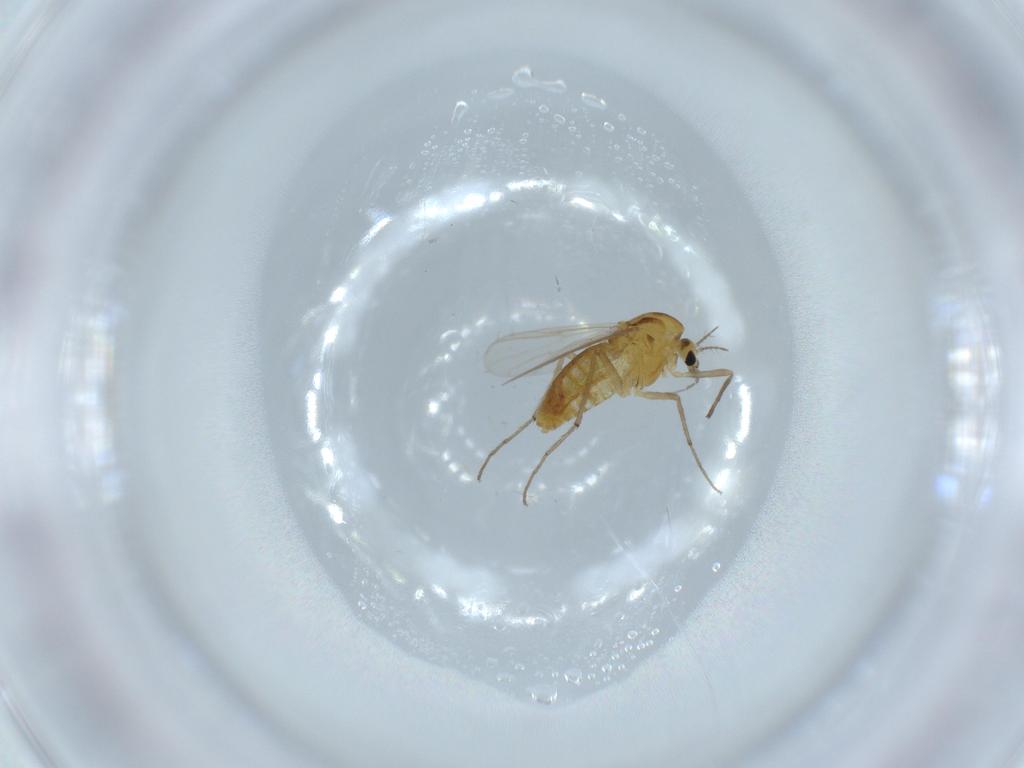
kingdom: Animalia
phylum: Arthropoda
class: Insecta
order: Diptera
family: Chironomidae
